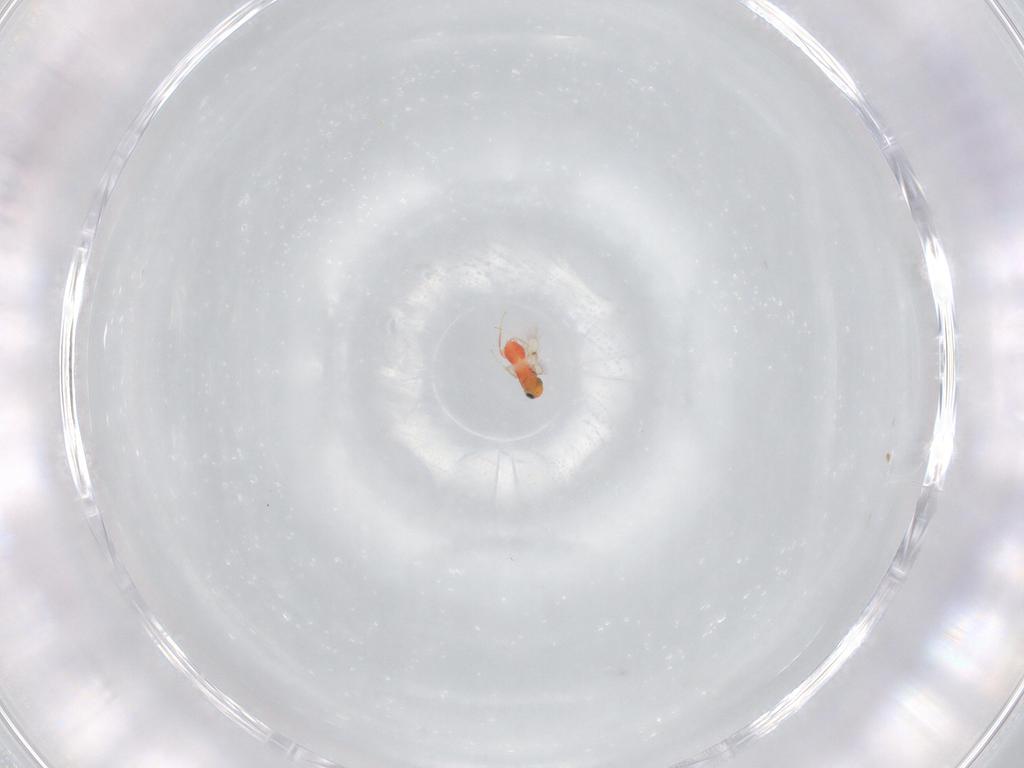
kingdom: Animalia
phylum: Arthropoda
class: Insecta
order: Hymenoptera
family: Trichogrammatidae
